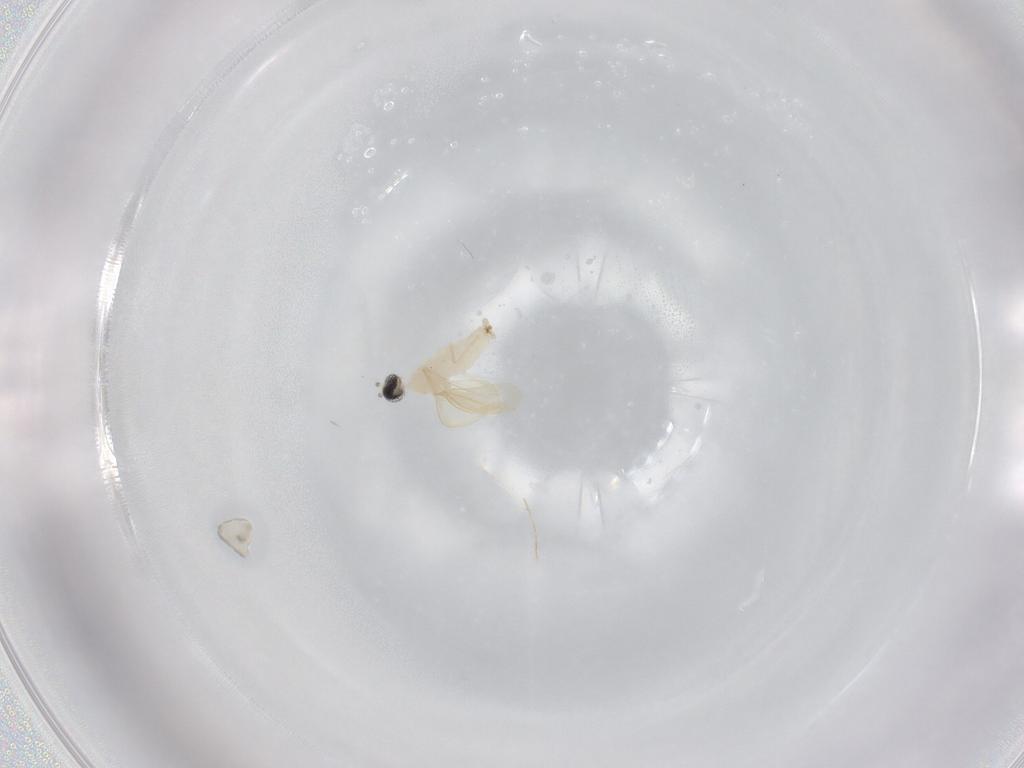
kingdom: Animalia
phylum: Arthropoda
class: Insecta
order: Diptera
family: Cecidomyiidae
